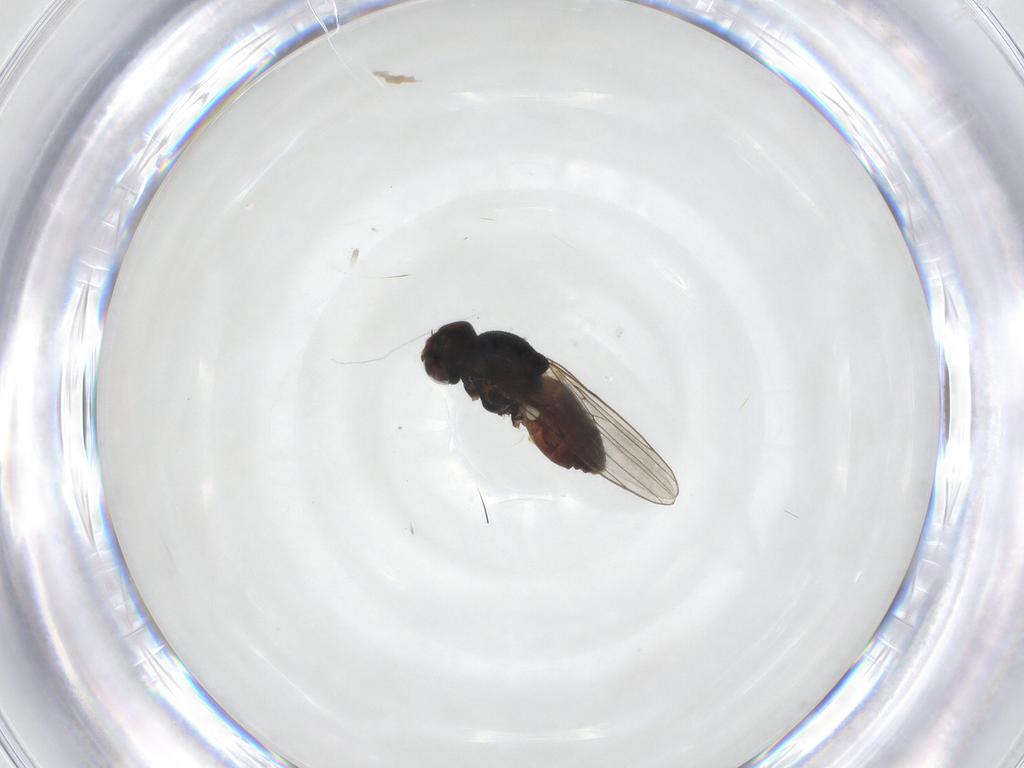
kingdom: Animalia
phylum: Arthropoda
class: Insecta
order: Diptera
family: Chloropidae
